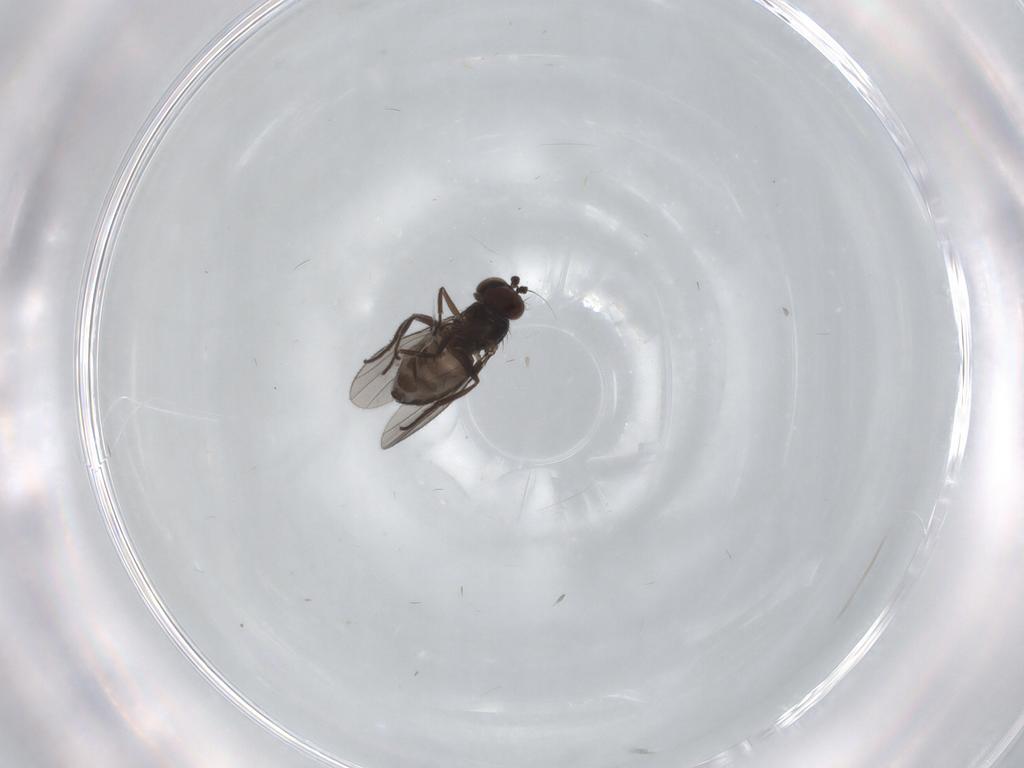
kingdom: Animalia
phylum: Arthropoda
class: Insecta
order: Diptera
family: Dolichopodidae
